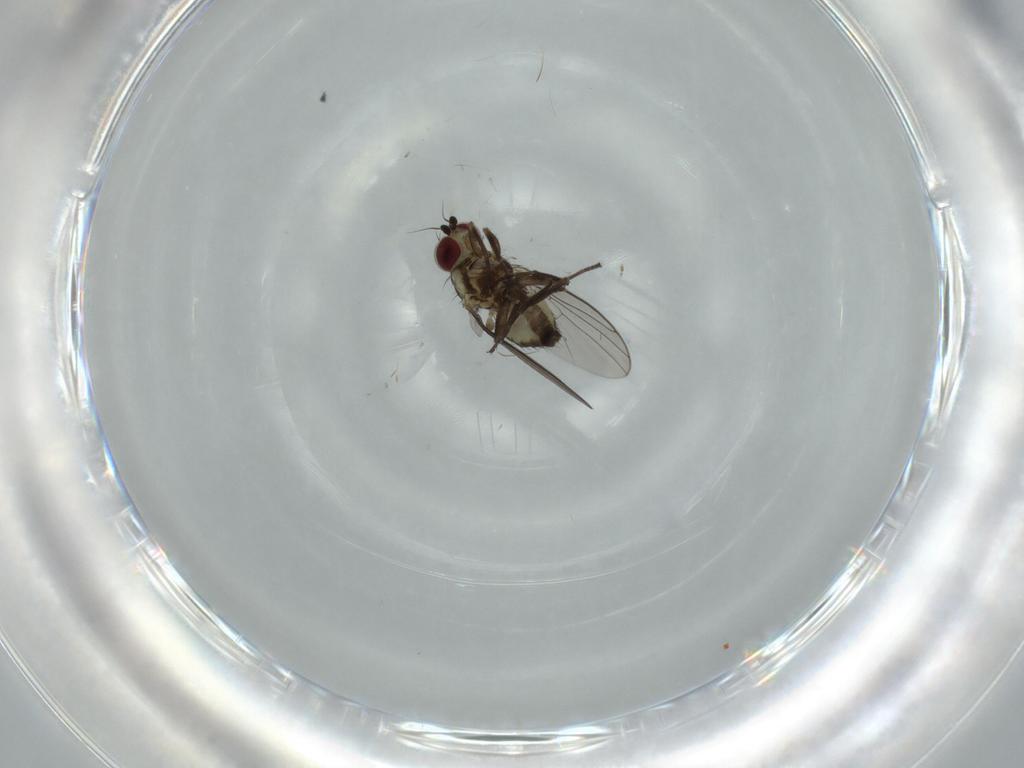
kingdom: Animalia
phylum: Arthropoda
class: Insecta
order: Diptera
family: Agromyzidae
